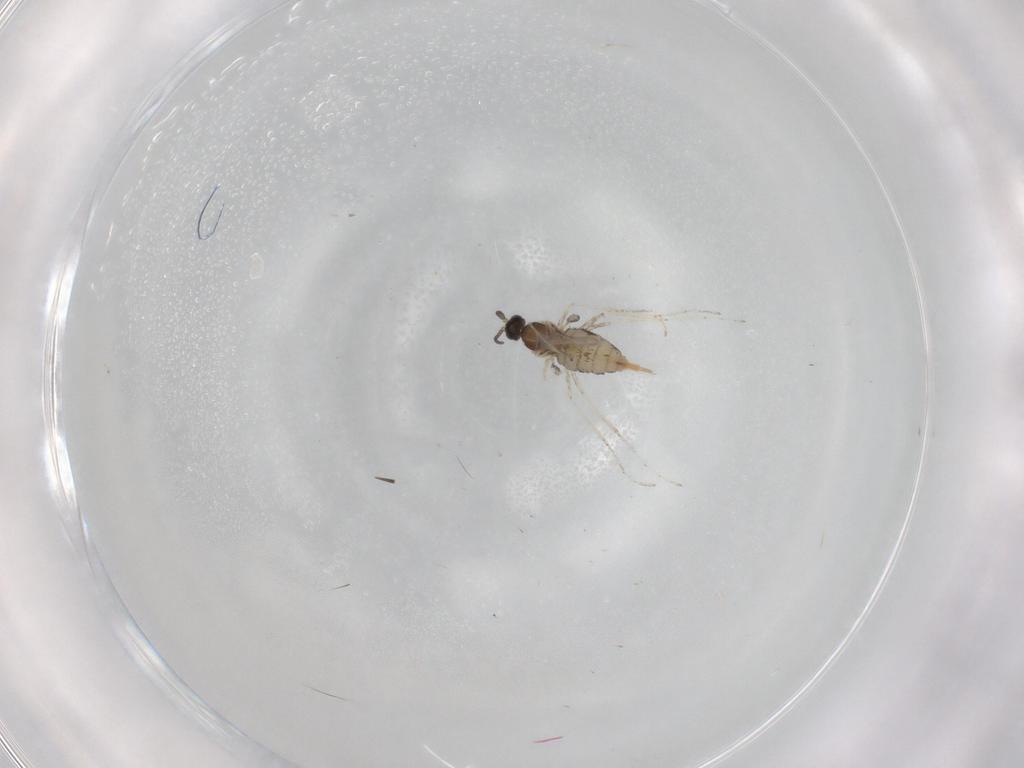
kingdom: Animalia
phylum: Arthropoda
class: Insecta
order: Diptera
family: Cecidomyiidae
